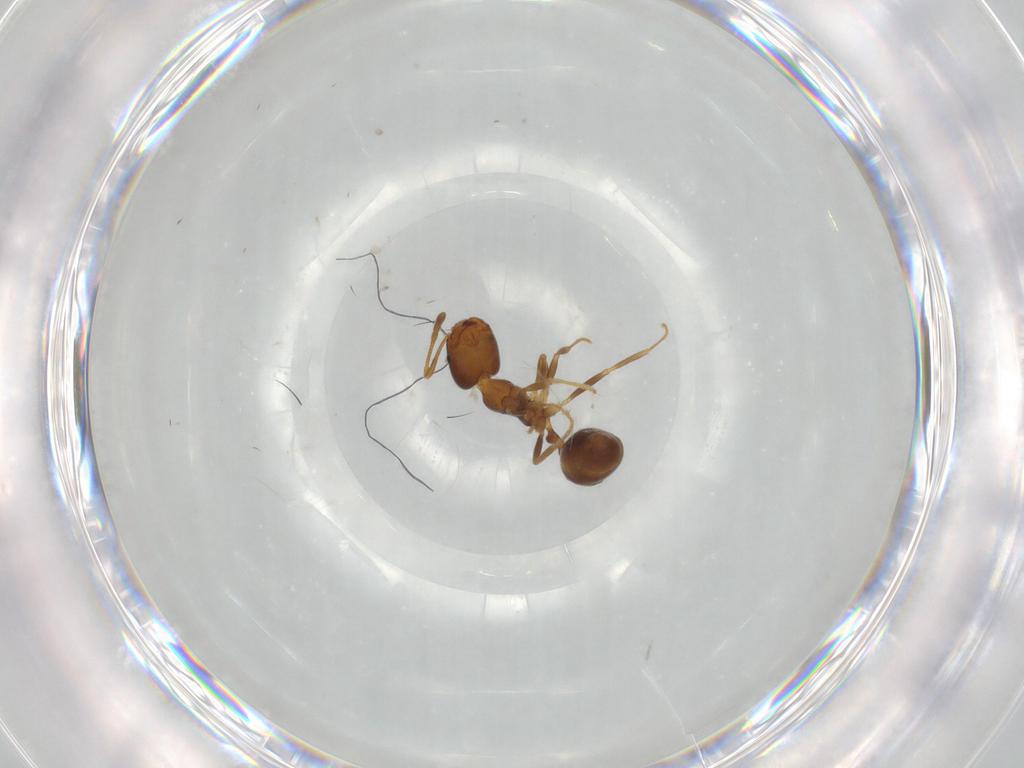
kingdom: Animalia
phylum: Arthropoda
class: Insecta
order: Hymenoptera
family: Formicidae
